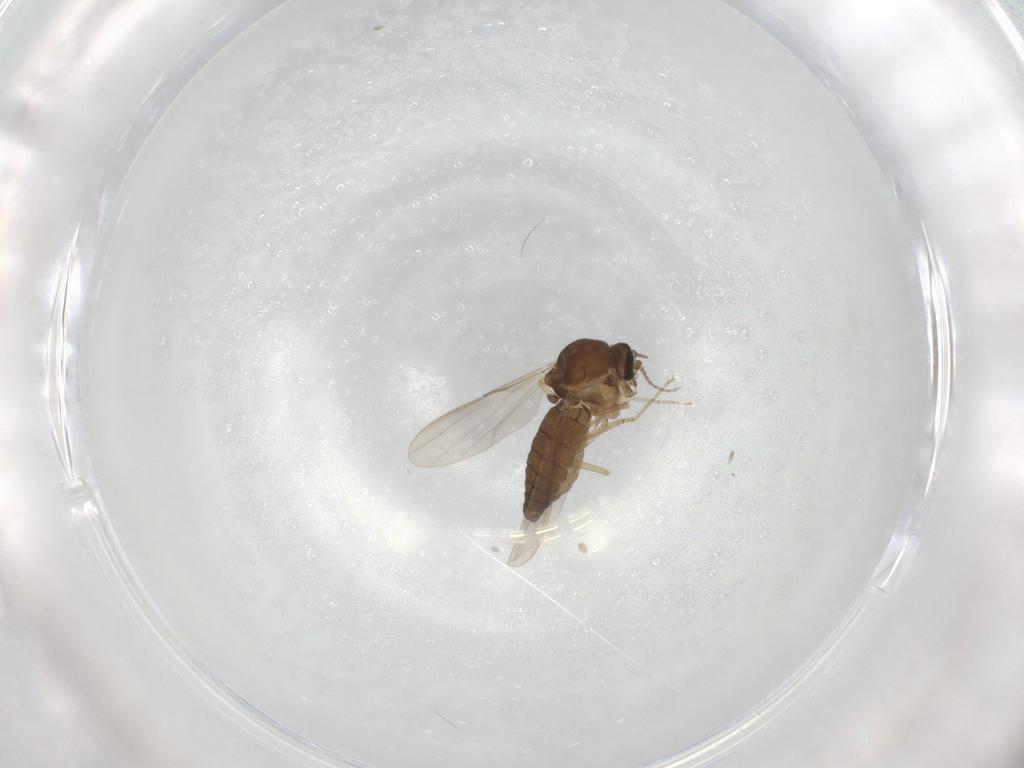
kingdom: Animalia
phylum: Arthropoda
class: Insecta
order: Diptera
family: Ceratopogonidae
